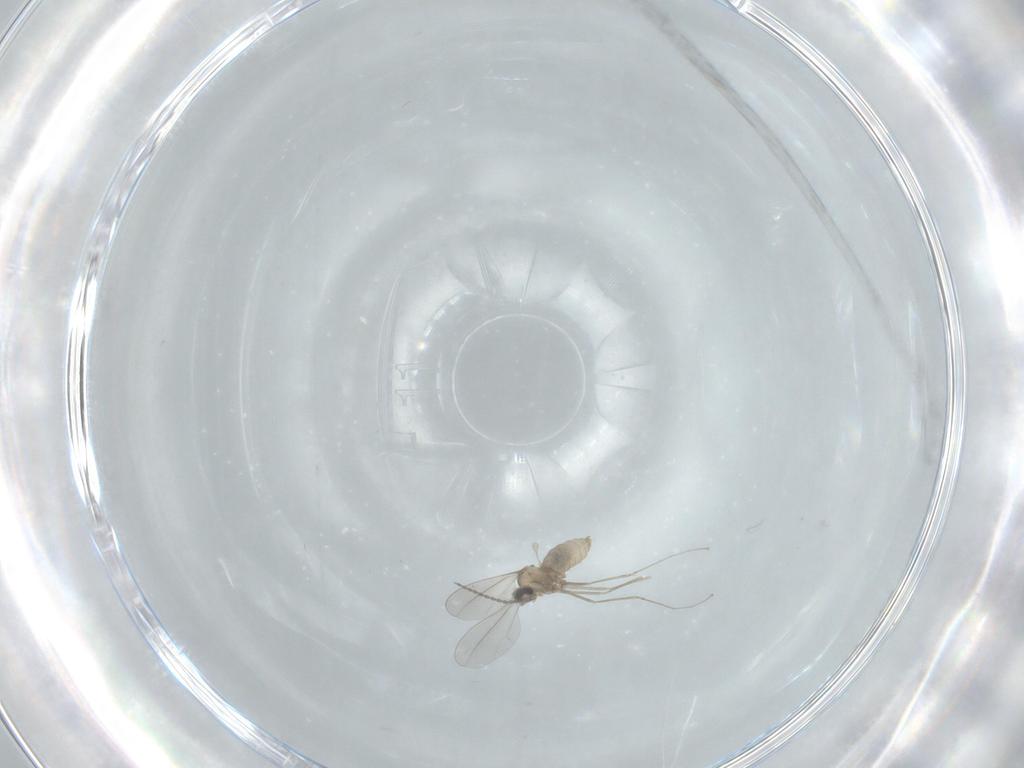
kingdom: Animalia
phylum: Arthropoda
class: Insecta
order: Diptera
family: Cecidomyiidae
